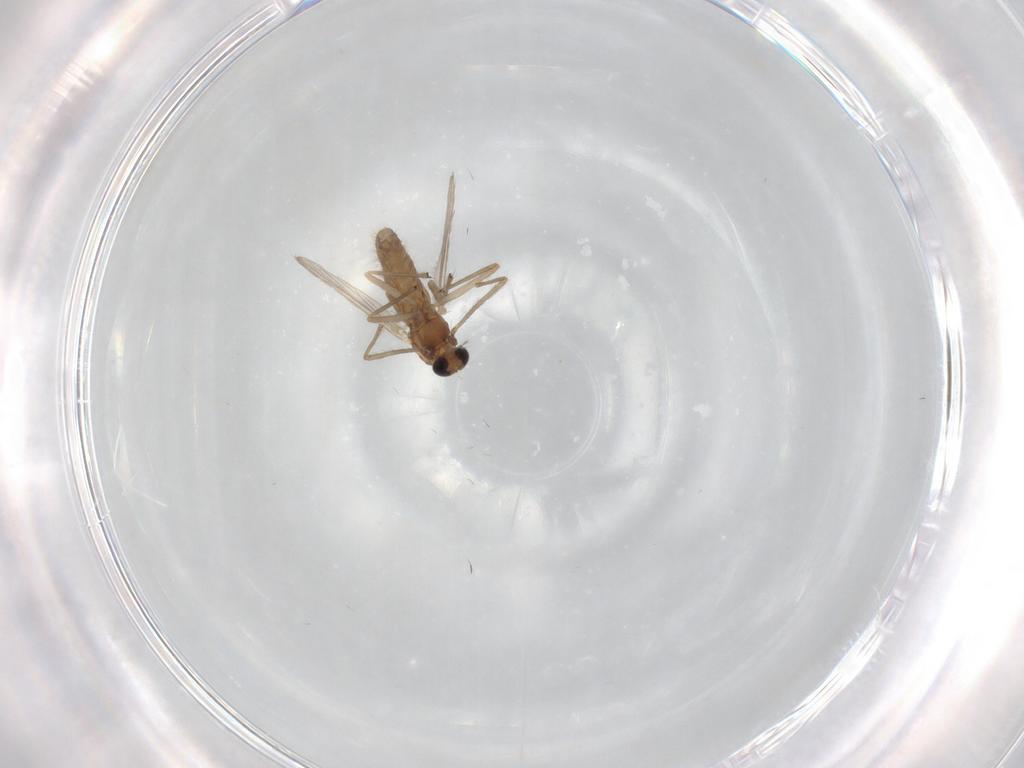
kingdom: Animalia
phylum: Arthropoda
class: Insecta
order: Diptera
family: Chironomidae
